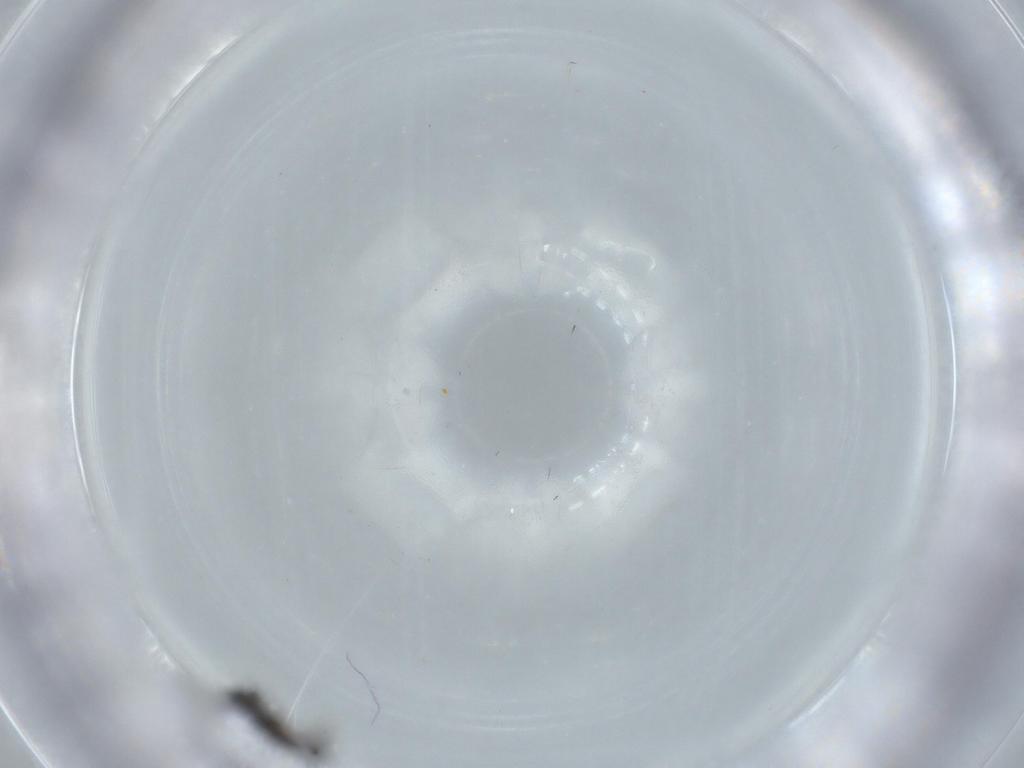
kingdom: Animalia
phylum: Arthropoda
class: Insecta
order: Diptera
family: Sciaridae
